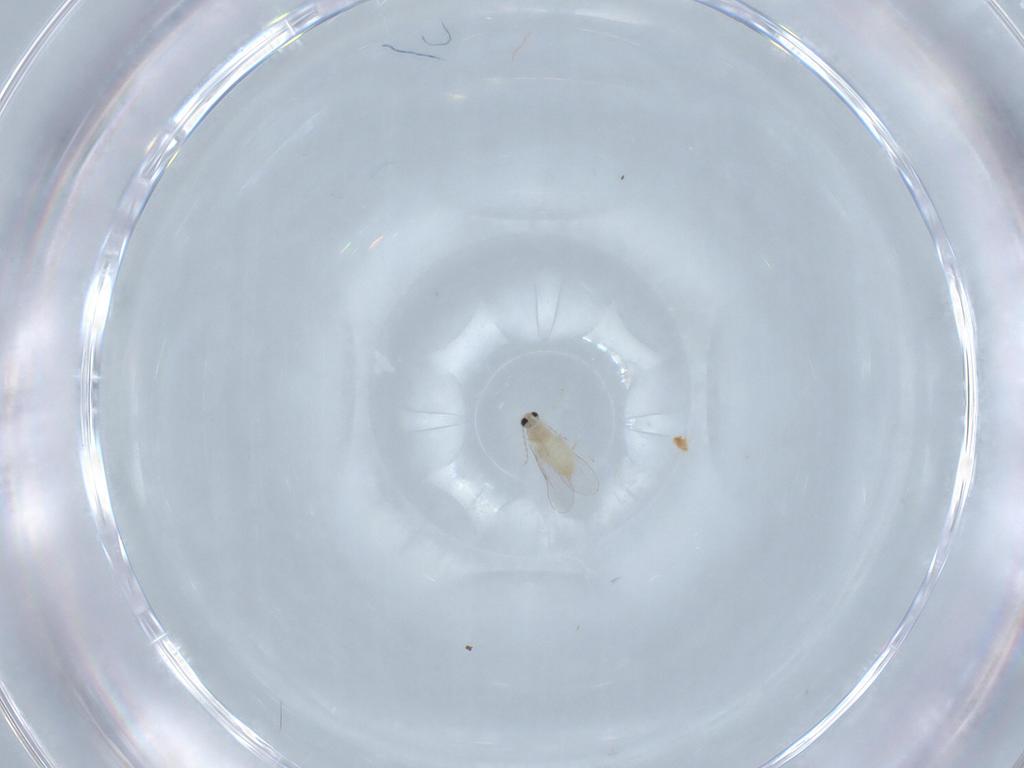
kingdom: Animalia
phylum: Arthropoda
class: Insecta
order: Diptera
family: Cecidomyiidae
